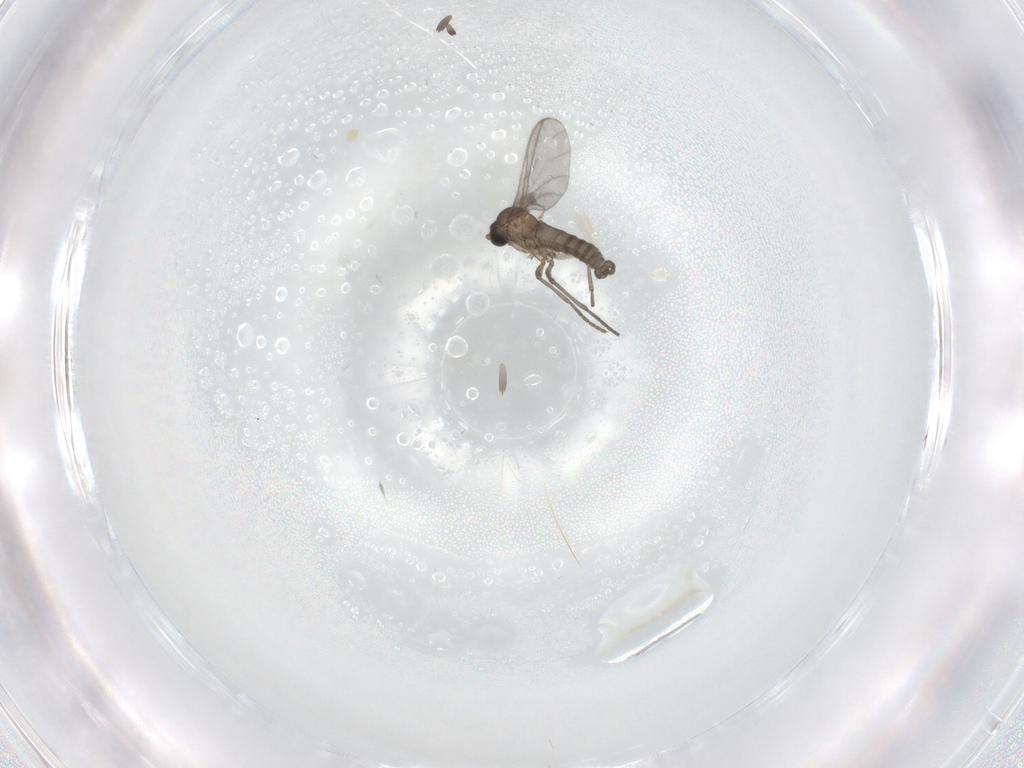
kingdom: Animalia
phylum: Arthropoda
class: Insecta
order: Diptera
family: Sciaridae
